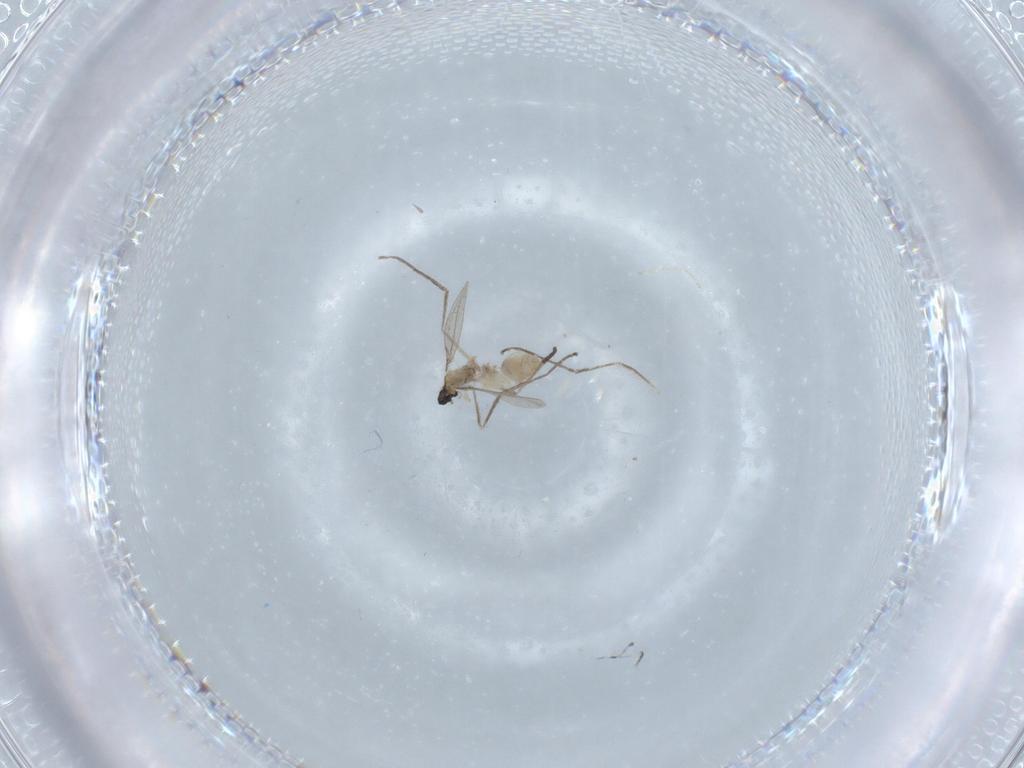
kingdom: Animalia
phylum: Arthropoda
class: Insecta
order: Diptera
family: Cecidomyiidae
